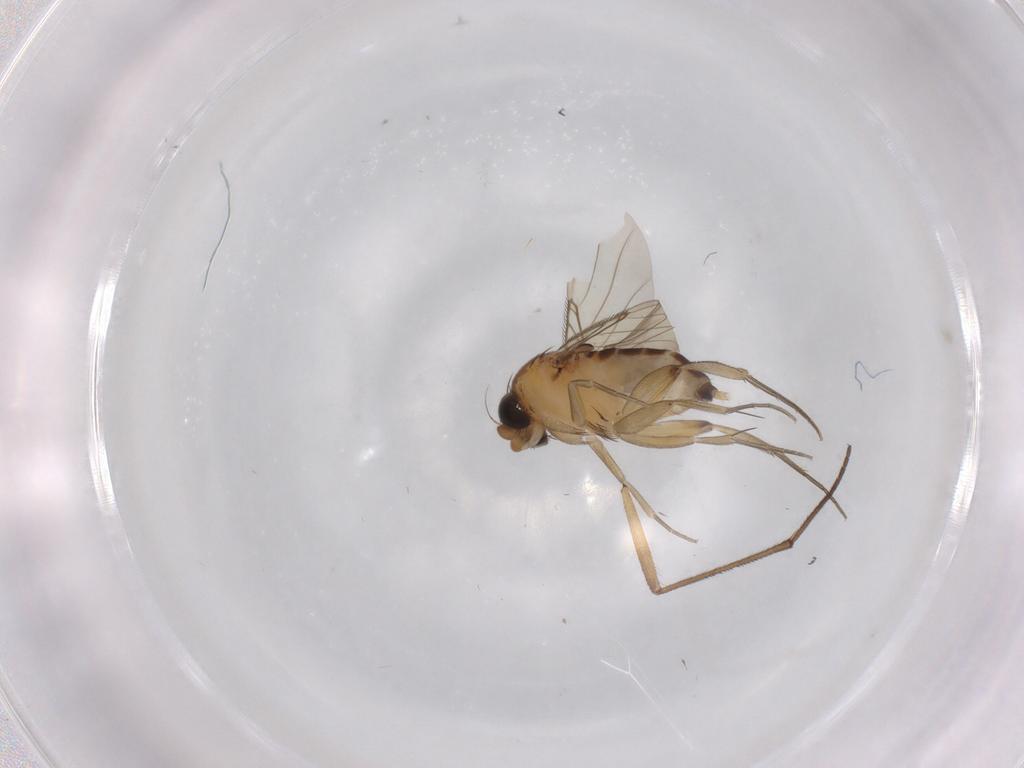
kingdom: Animalia
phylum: Arthropoda
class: Insecta
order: Diptera
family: Phoridae
